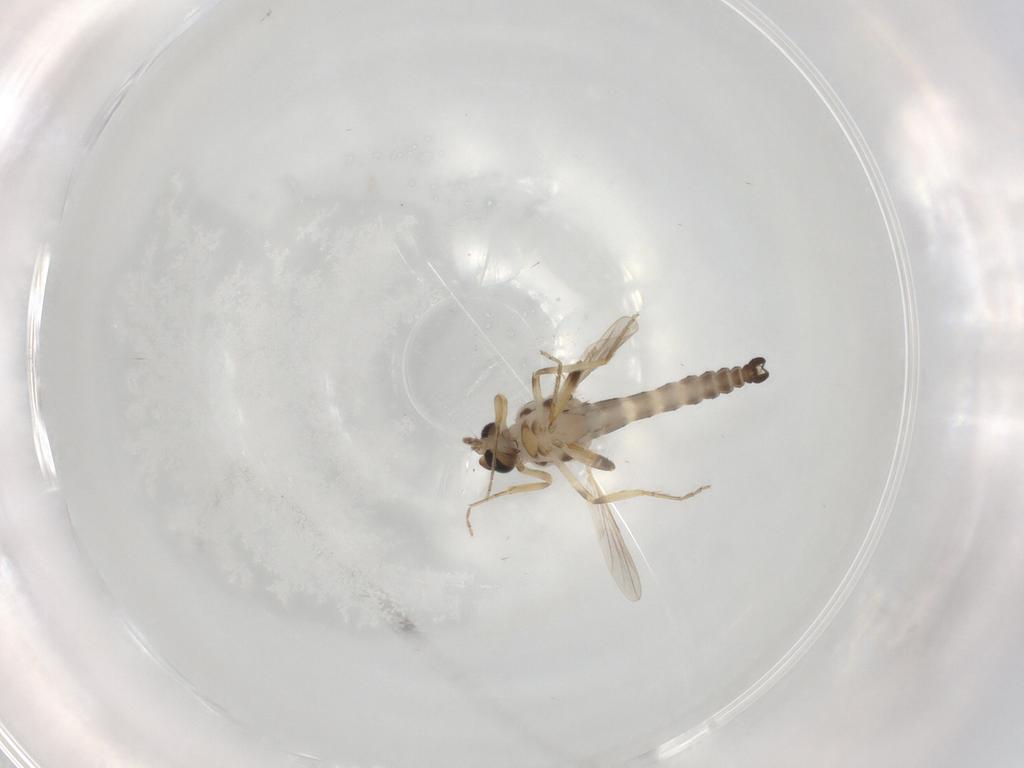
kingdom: Animalia
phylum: Arthropoda
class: Insecta
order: Diptera
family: Ceratopogonidae
